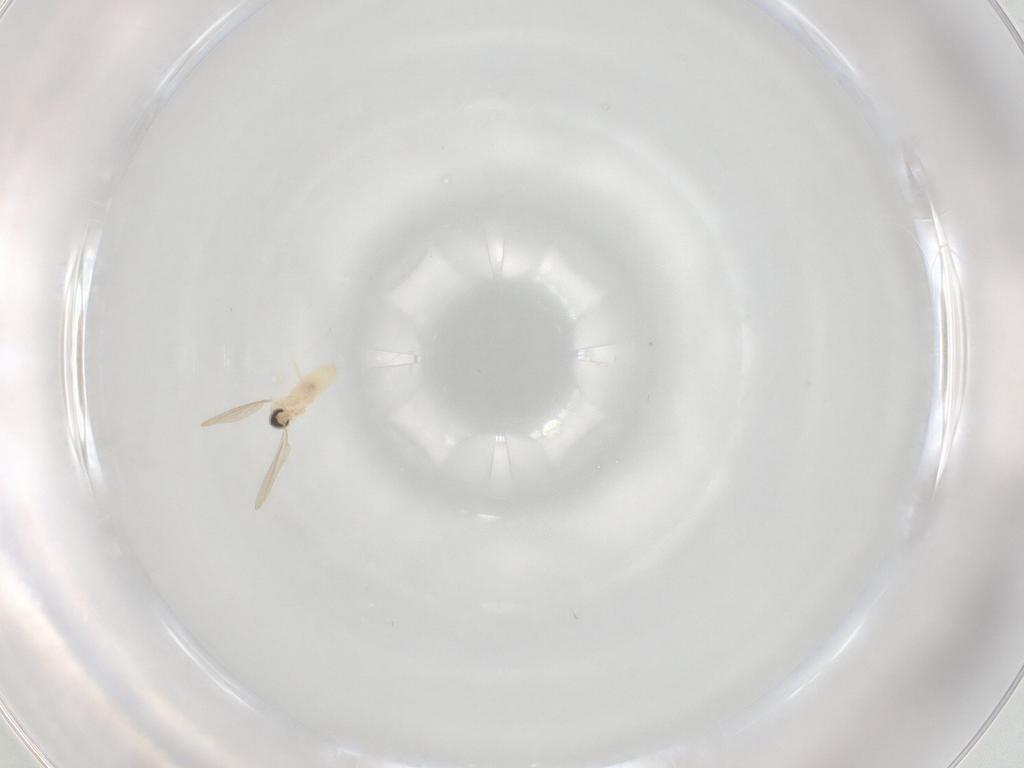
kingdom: Animalia
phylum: Arthropoda
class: Insecta
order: Diptera
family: Cecidomyiidae
